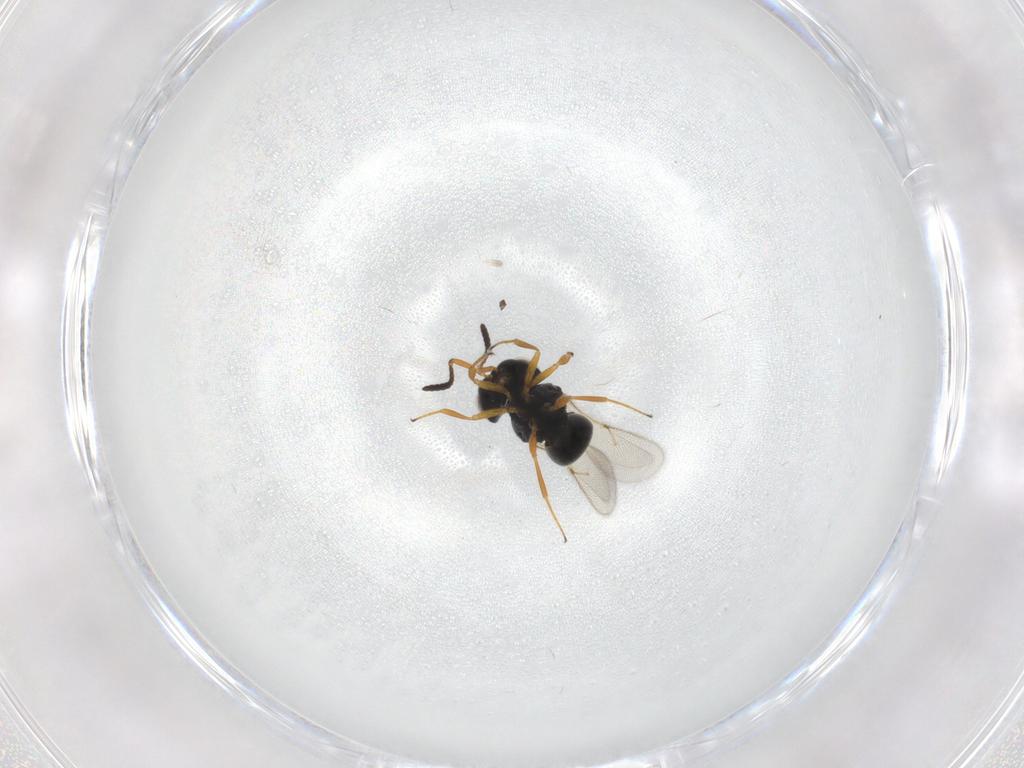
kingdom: Animalia
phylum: Arthropoda
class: Insecta
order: Hymenoptera
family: Scelionidae
